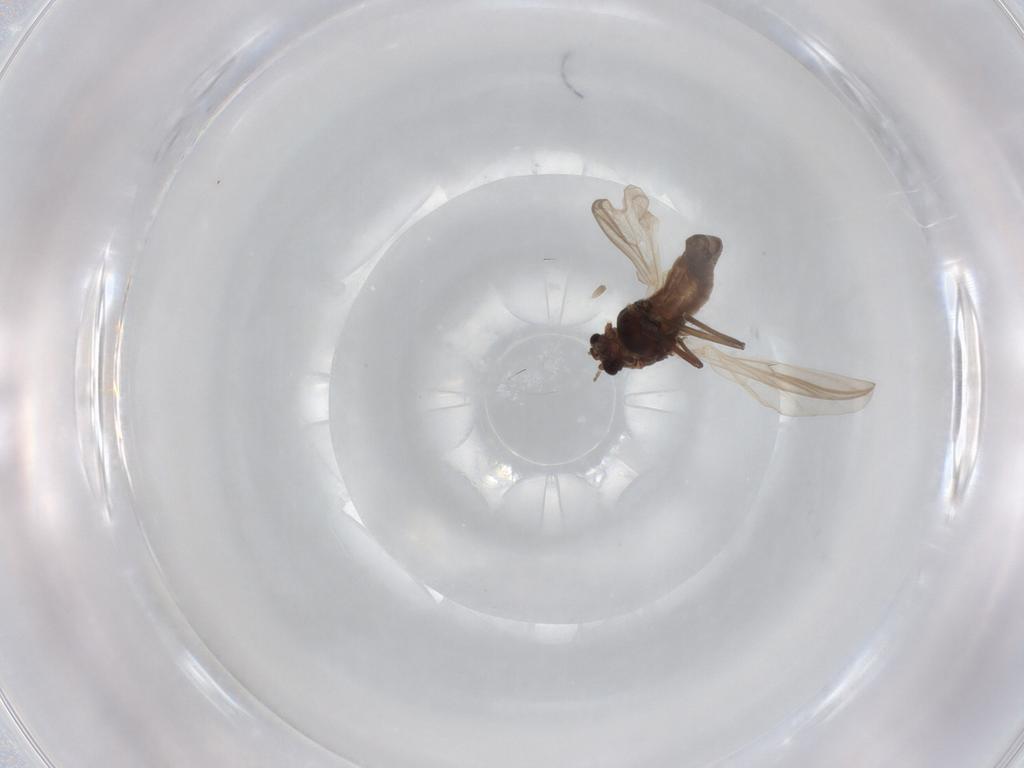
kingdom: Animalia
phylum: Arthropoda
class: Insecta
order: Diptera
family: Chironomidae
